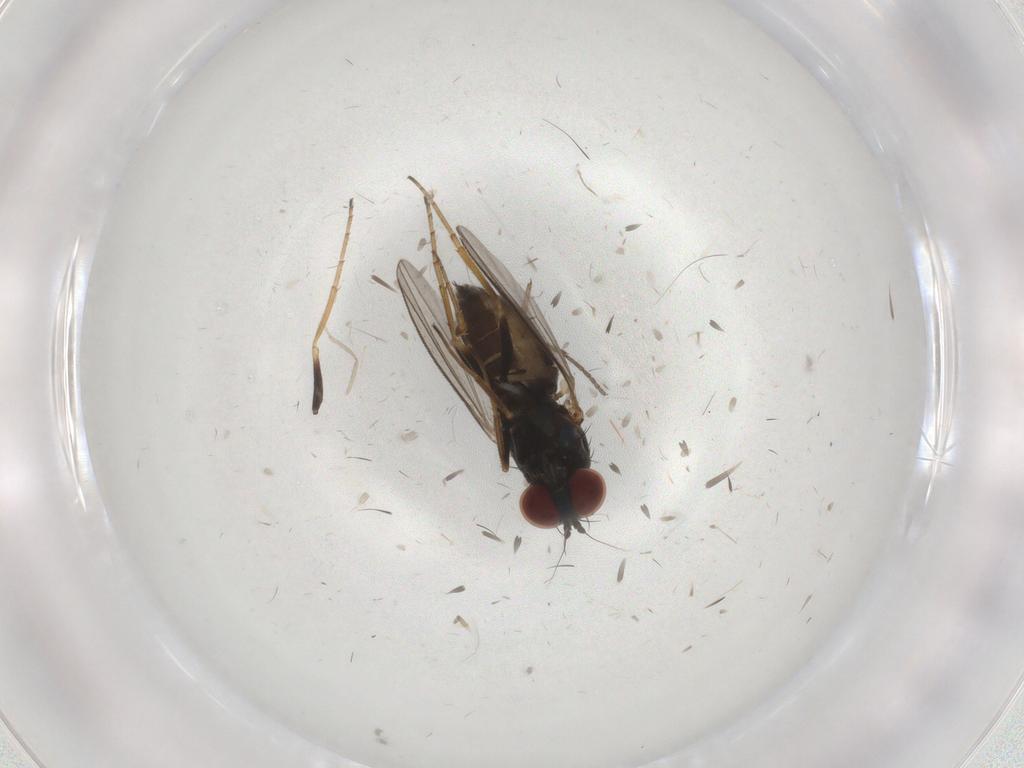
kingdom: Animalia
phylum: Arthropoda
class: Insecta
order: Diptera
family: Dolichopodidae
